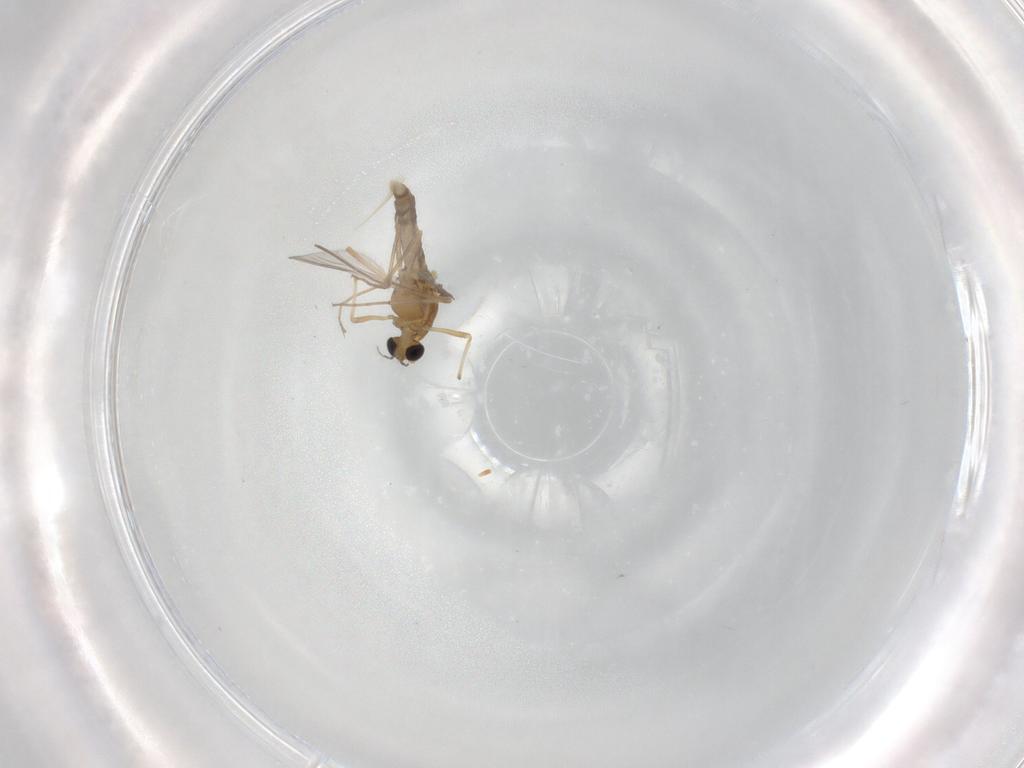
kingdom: Animalia
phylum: Arthropoda
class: Insecta
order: Diptera
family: Chironomidae
